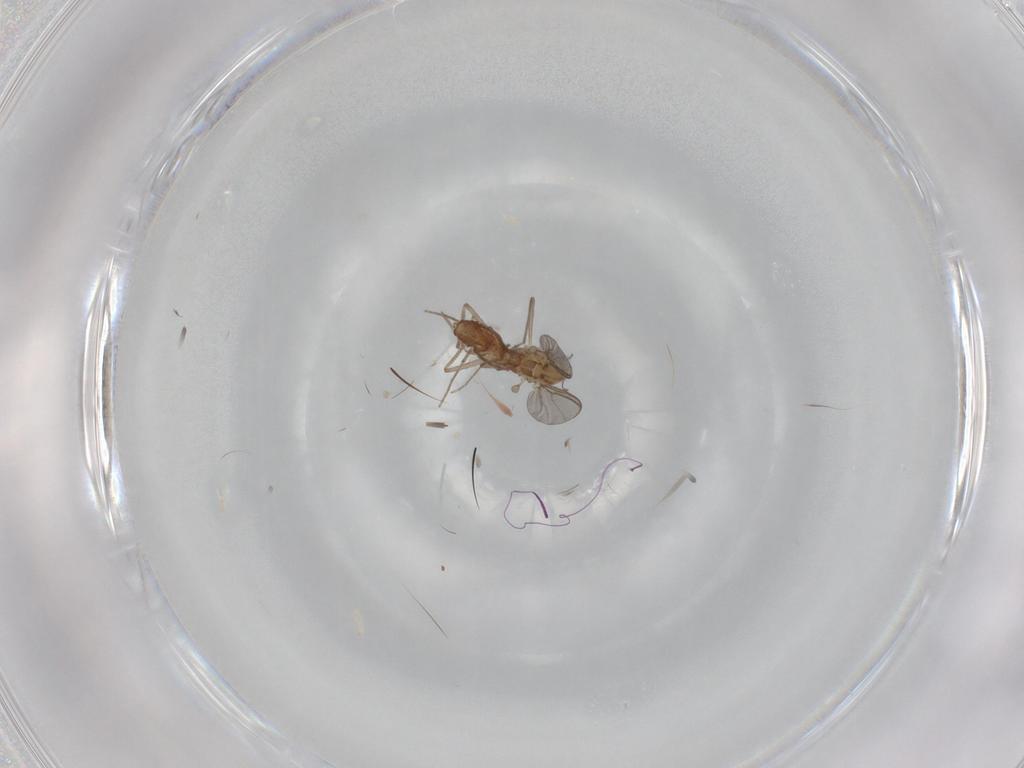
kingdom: Animalia
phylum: Arthropoda
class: Insecta
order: Diptera
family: Chironomidae
